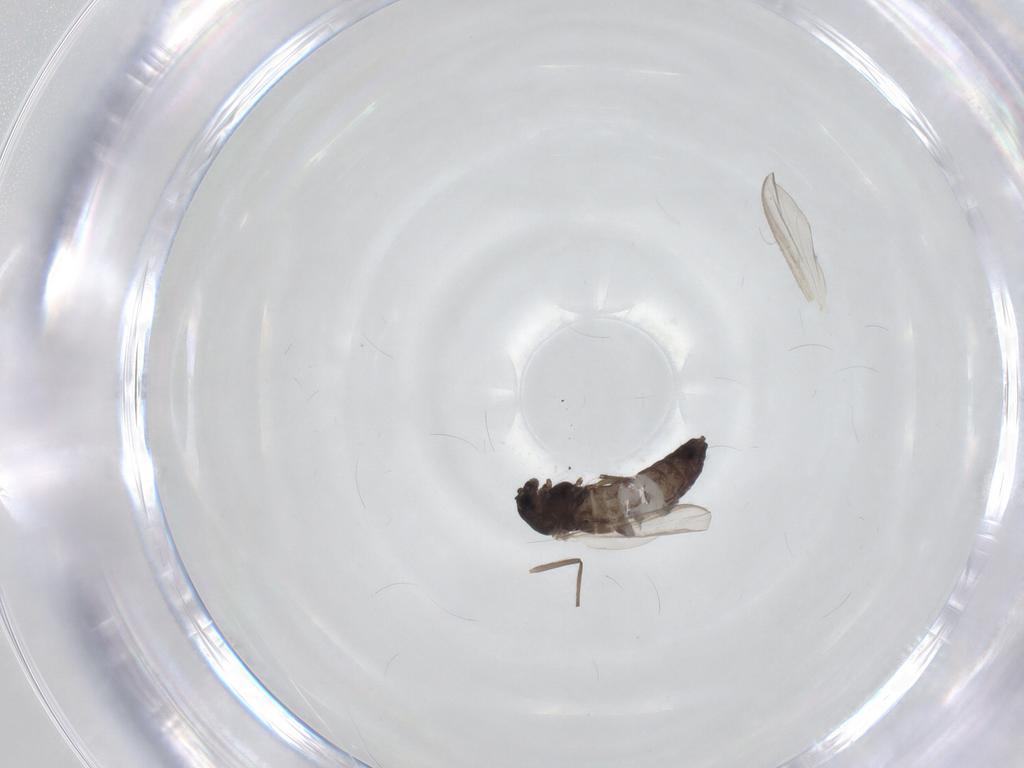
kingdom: Animalia
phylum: Arthropoda
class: Insecta
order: Diptera
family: Chironomidae
